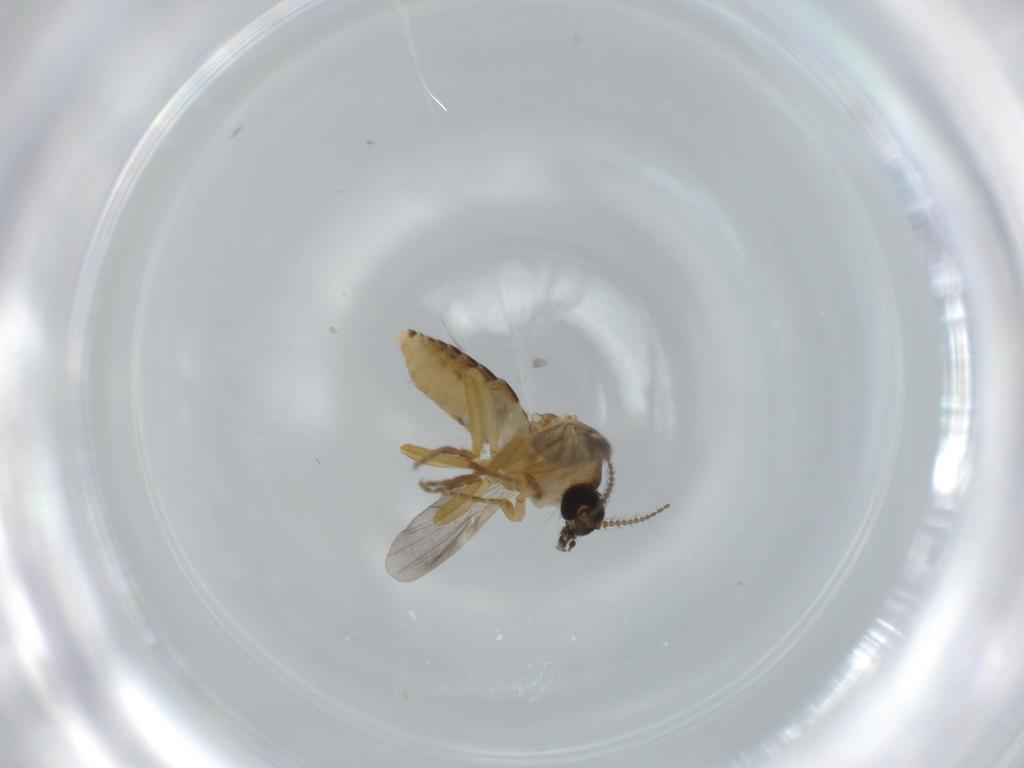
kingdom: Animalia
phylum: Arthropoda
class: Insecta
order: Diptera
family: Ceratopogonidae
